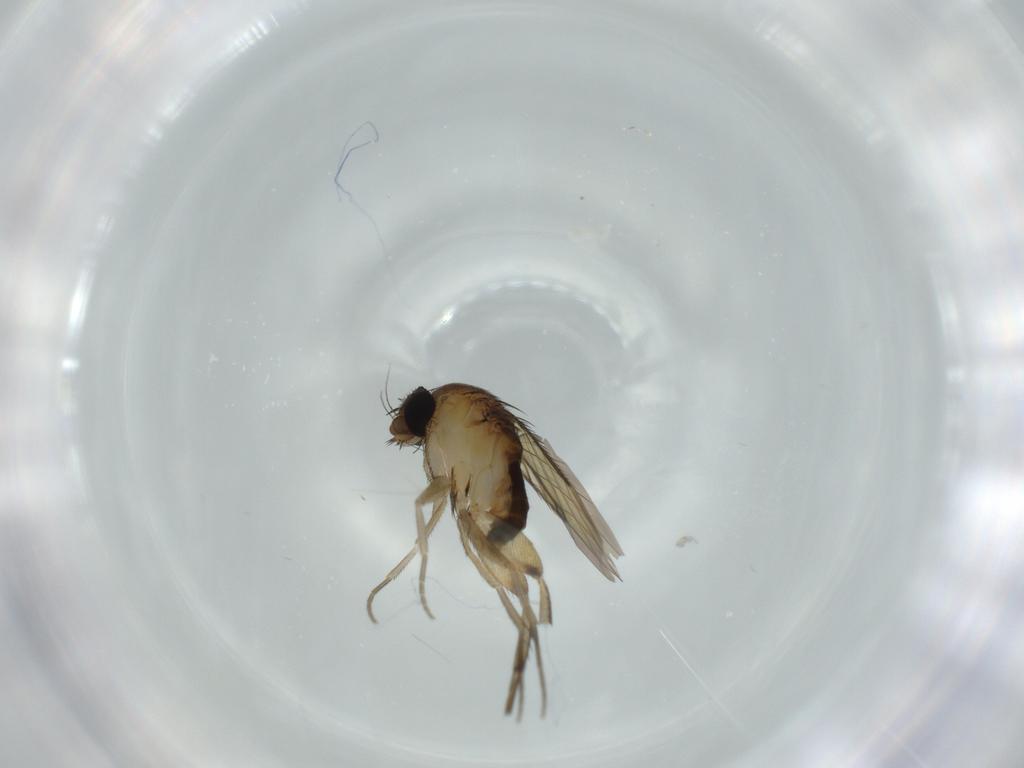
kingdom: Animalia
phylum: Arthropoda
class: Insecta
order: Diptera
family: Phoridae
